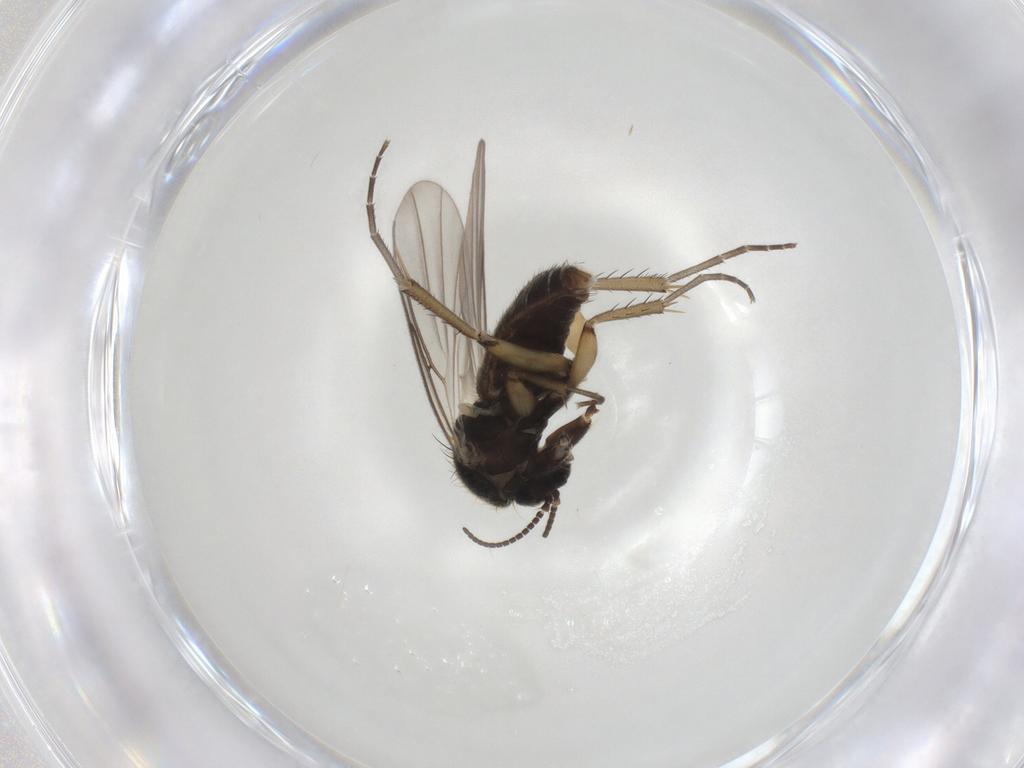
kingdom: Animalia
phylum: Arthropoda
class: Insecta
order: Diptera
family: Mycetophilidae
